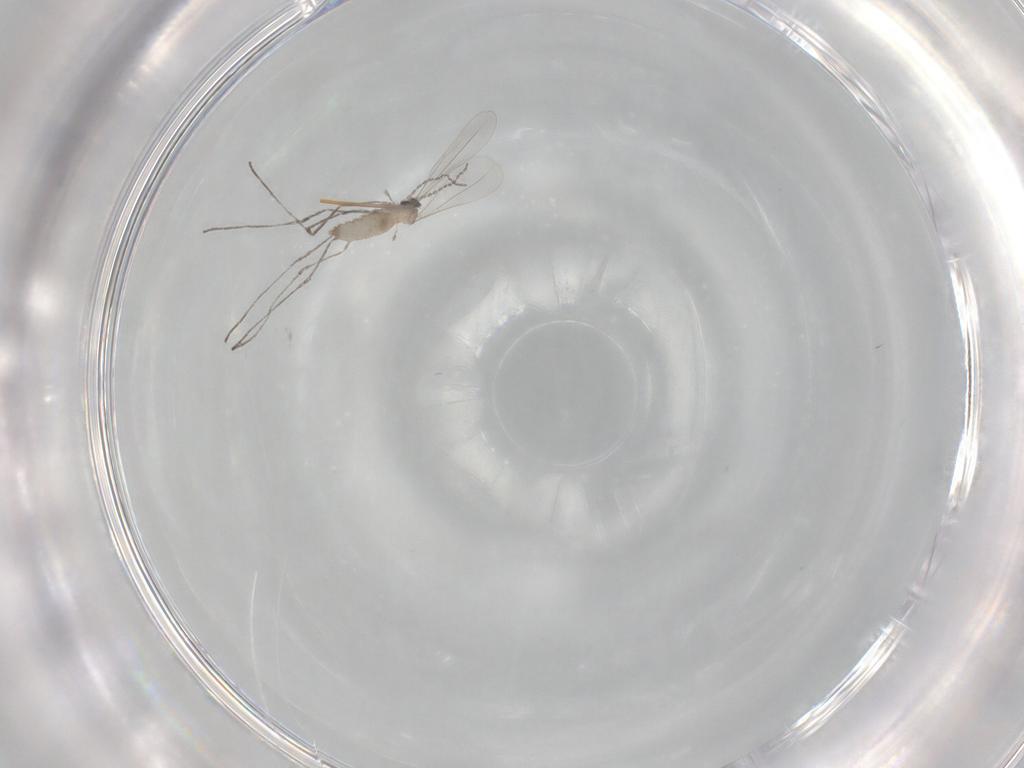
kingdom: Animalia
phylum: Arthropoda
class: Insecta
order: Diptera
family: Cecidomyiidae
